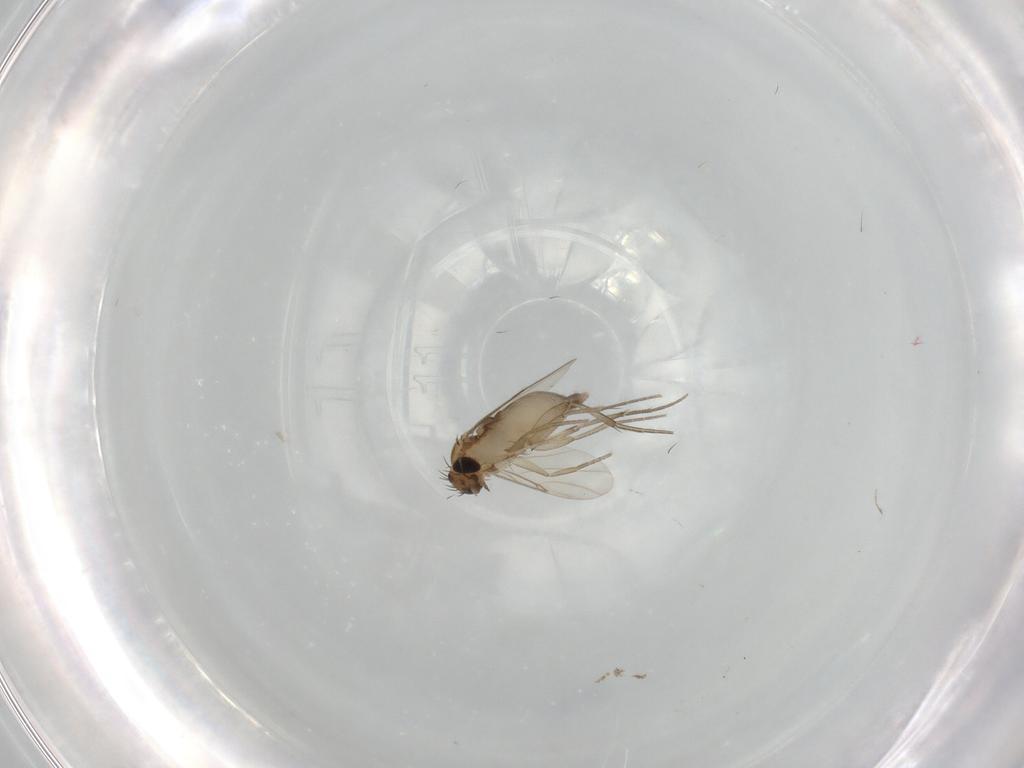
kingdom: Animalia
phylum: Arthropoda
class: Insecta
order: Diptera
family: Phoridae
